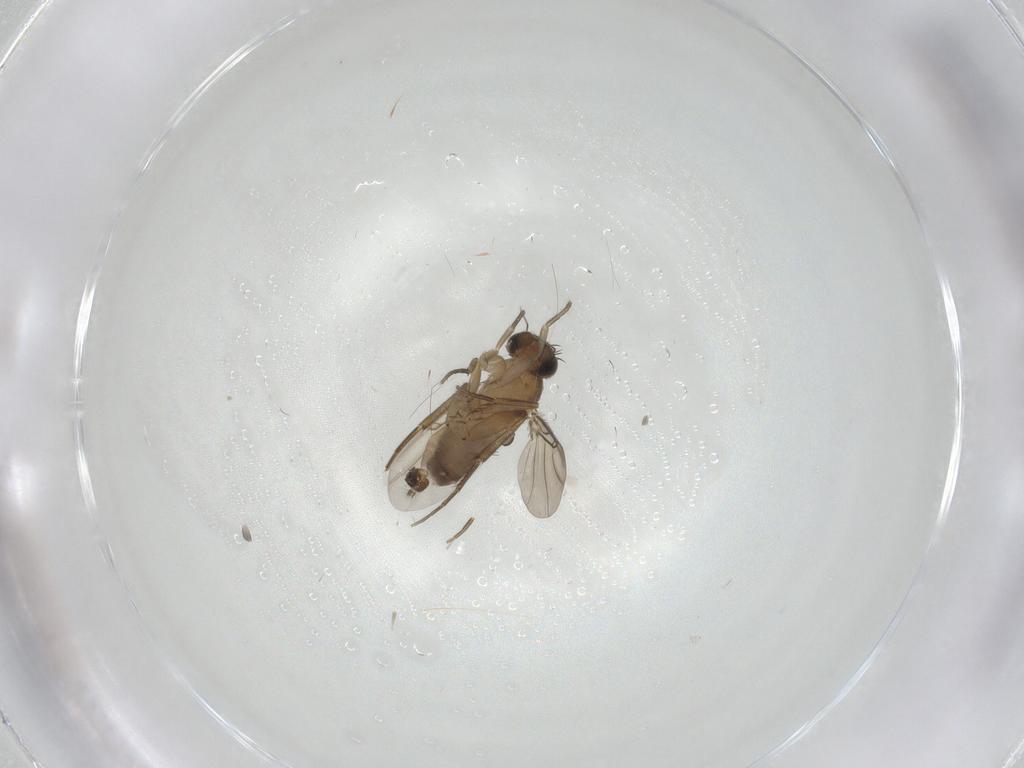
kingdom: Animalia
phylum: Arthropoda
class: Insecta
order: Diptera
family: Phoridae
